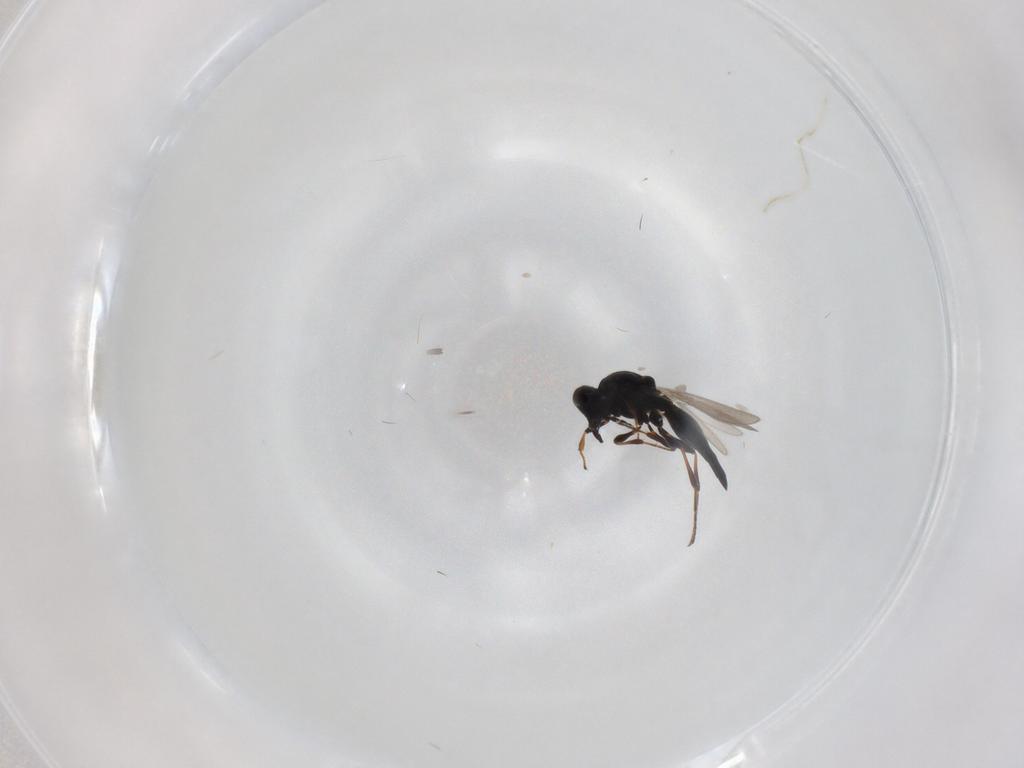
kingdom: Animalia
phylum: Arthropoda
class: Insecta
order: Hymenoptera
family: Platygastridae
